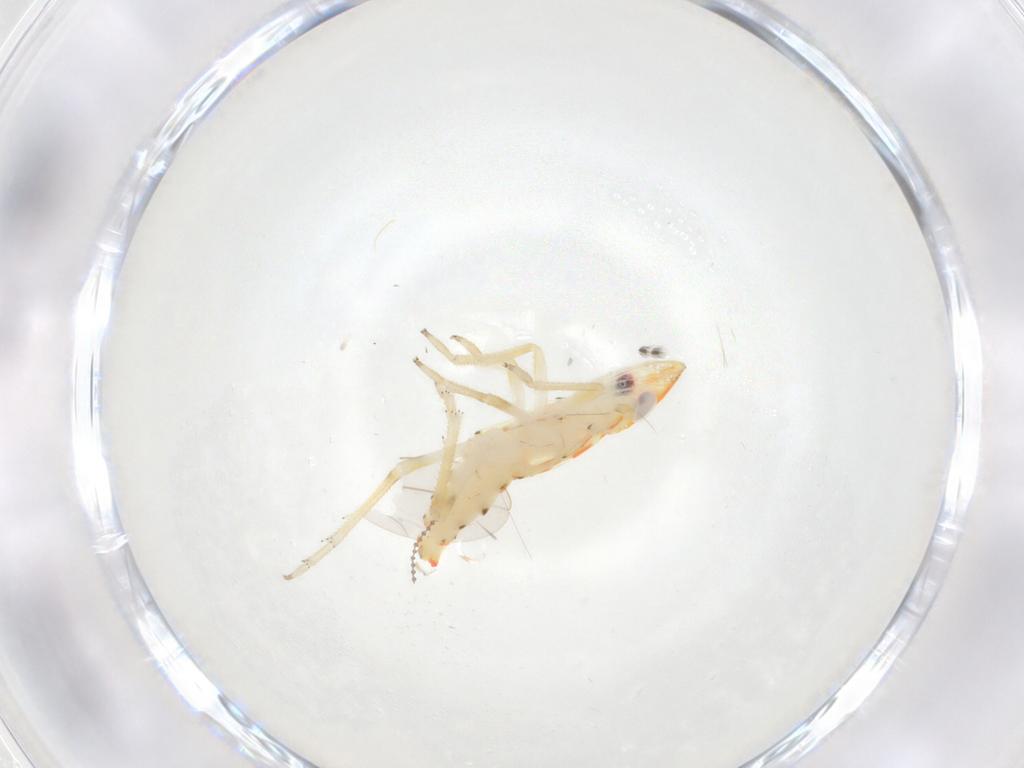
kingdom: Animalia
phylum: Arthropoda
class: Insecta
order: Hemiptera
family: Tropiduchidae
